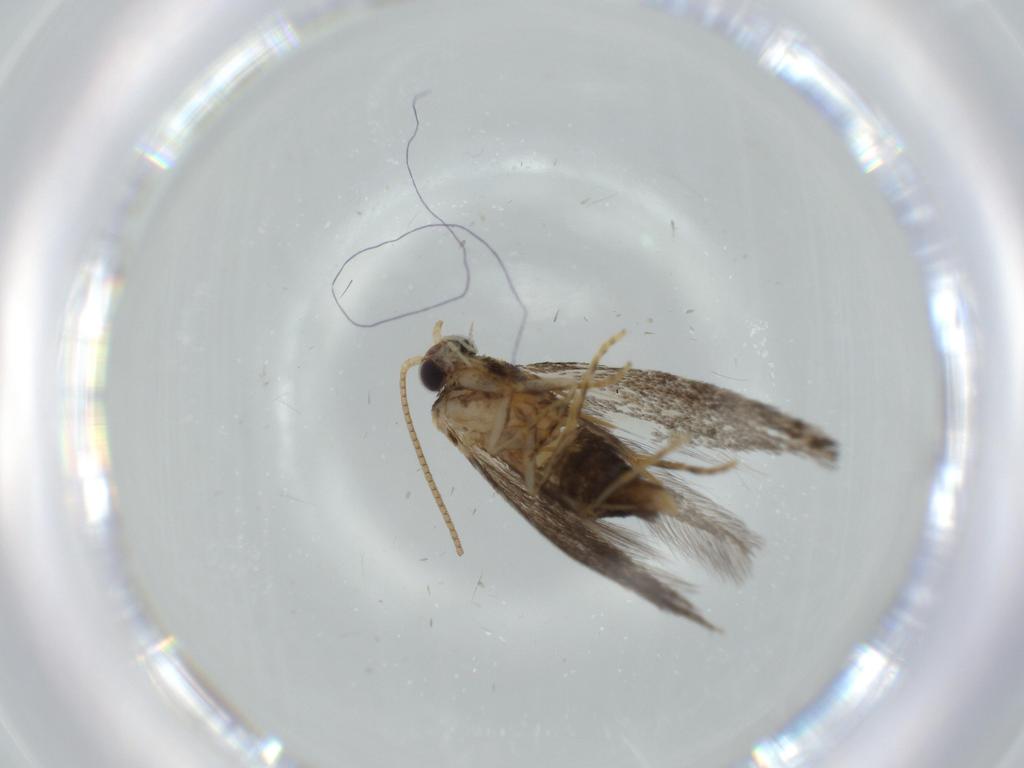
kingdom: Animalia
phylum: Arthropoda
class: Insecta
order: Lepidoptera
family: Tineidae
